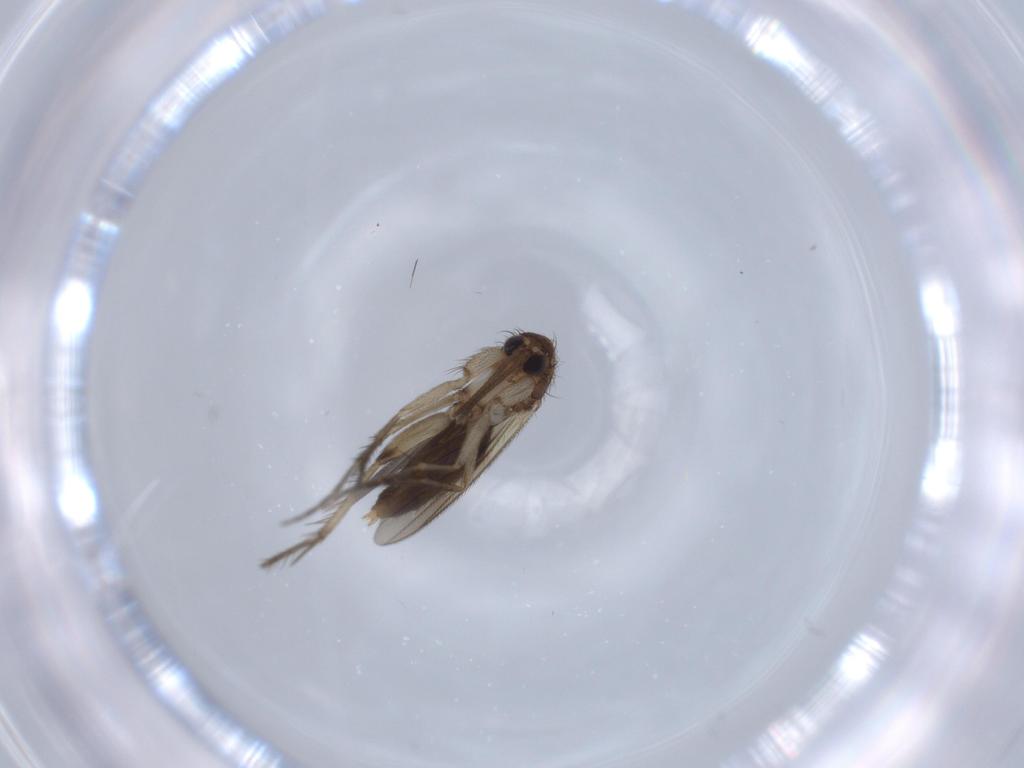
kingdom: Animalia
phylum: Arthropoda
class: Insecta
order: Diptera
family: Mycetophilidae
